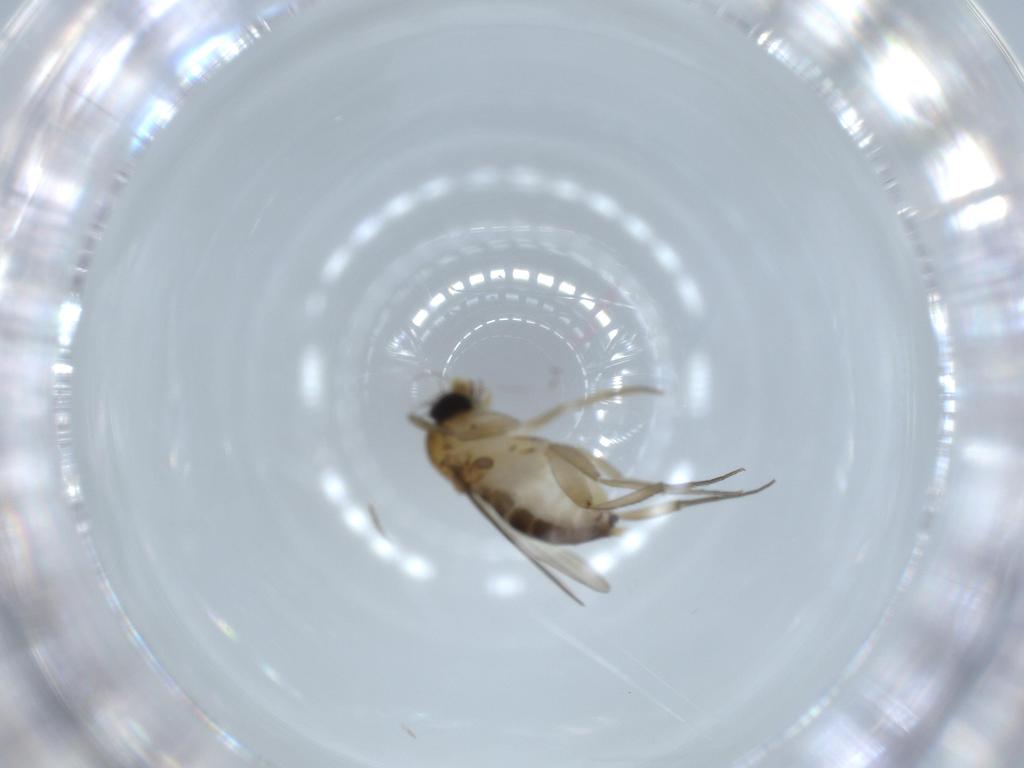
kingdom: Animalia
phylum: Arthropoda
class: Insecta
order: Diptera
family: Phoridae
